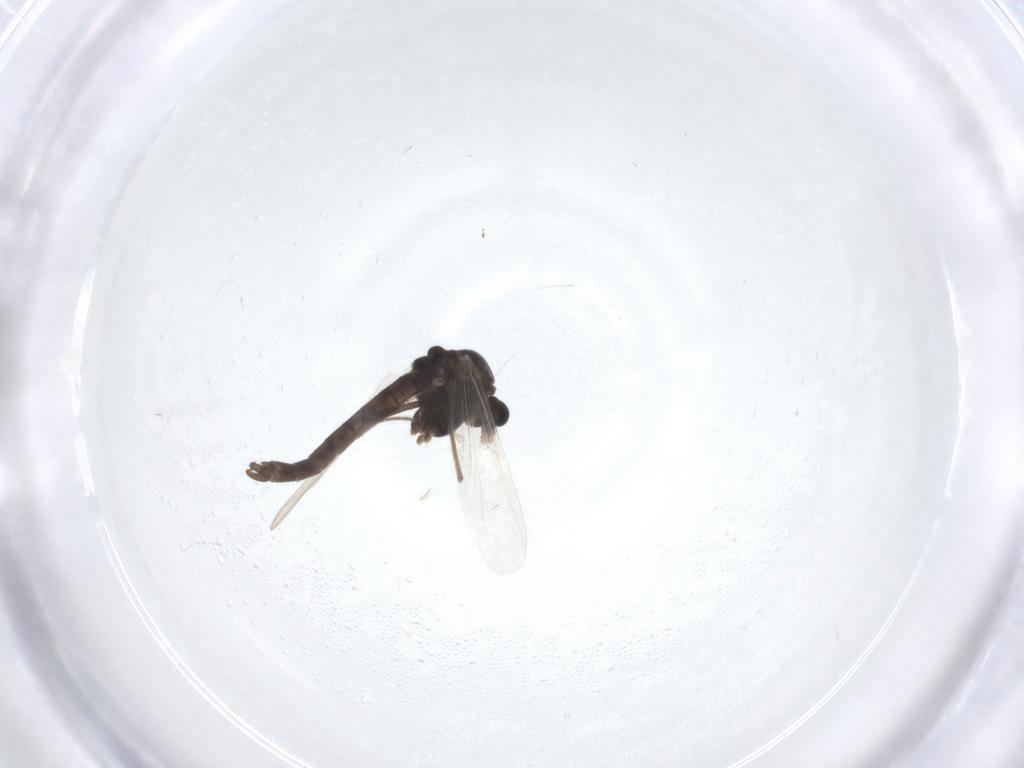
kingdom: Animalia
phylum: Arthropoda
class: Insecta
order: Diptera
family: Chironomidae
